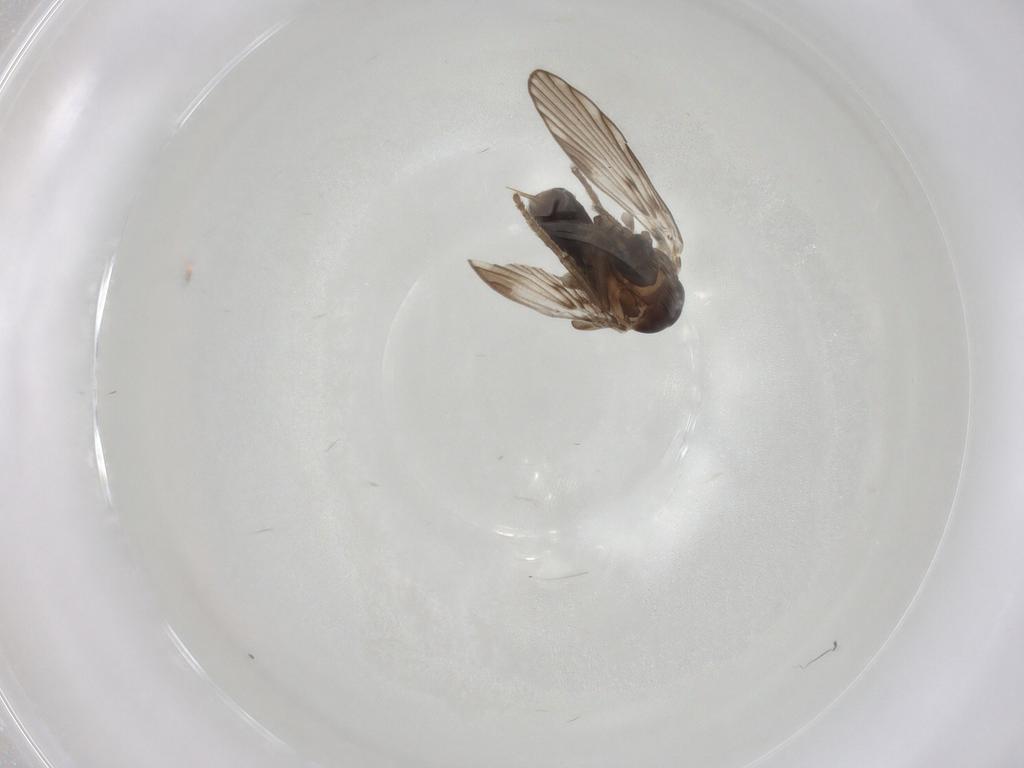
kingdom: Animalia
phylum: Arthropoda
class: Insecta
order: Diptera
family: Psychodidae
